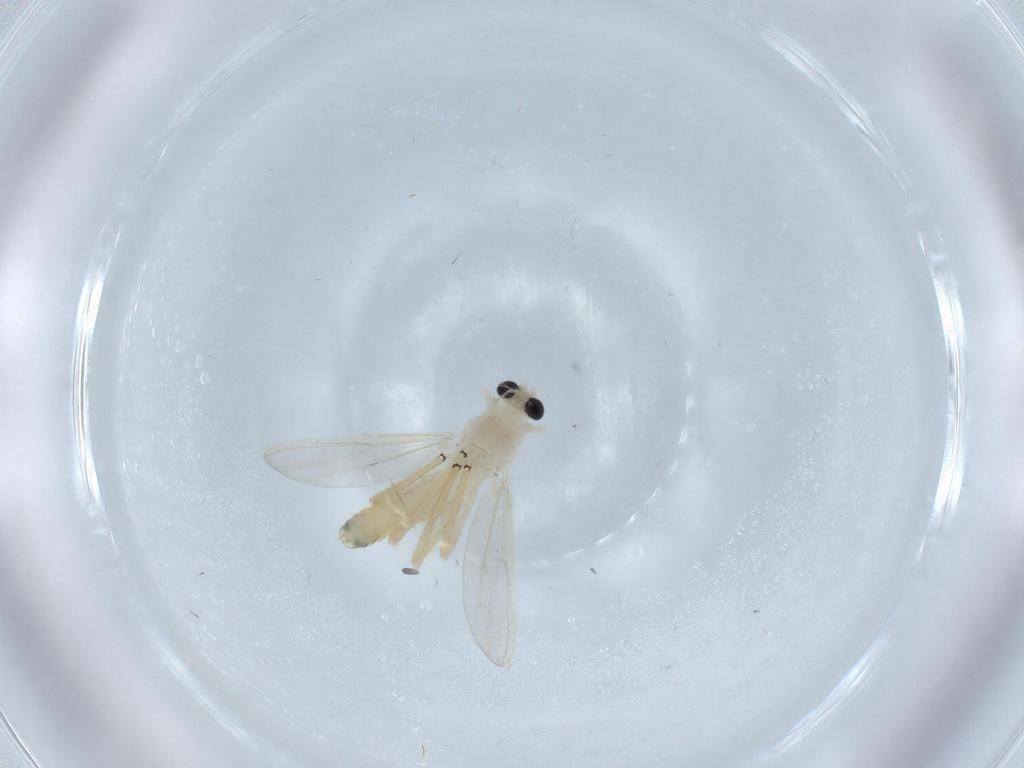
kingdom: Animalia
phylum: Arthropoda
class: Insecta
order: Diptera
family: Chironomidae
